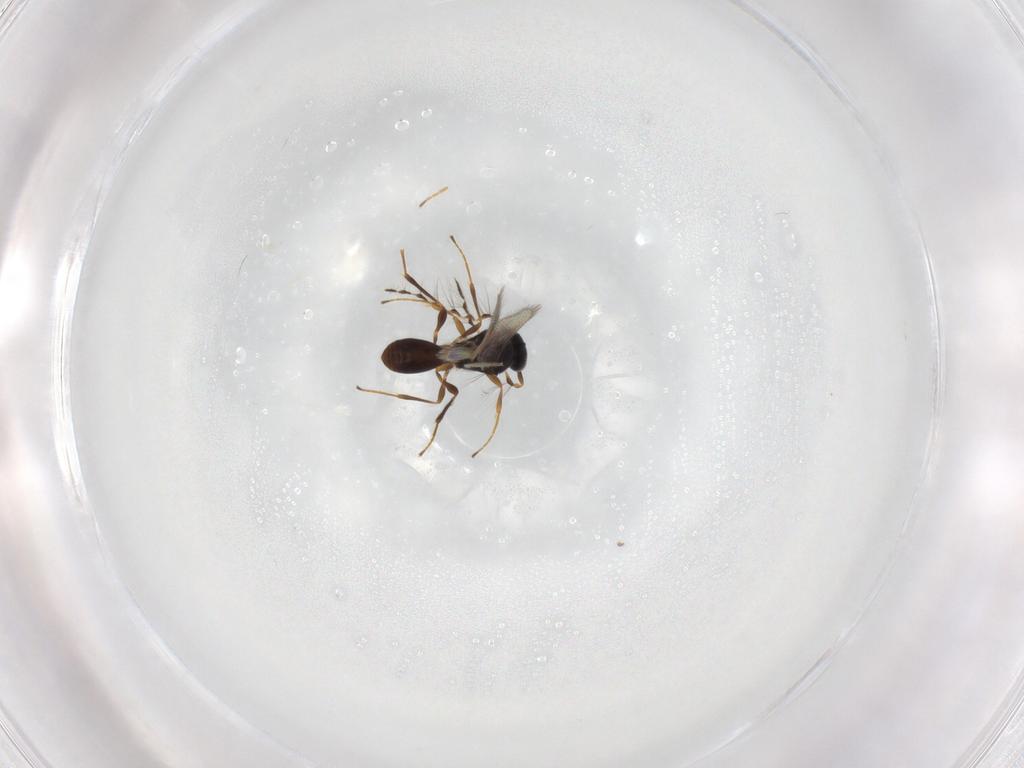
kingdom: Animalia
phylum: Arthropoda
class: Insecta
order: Hymenoptera
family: Platygastridae
